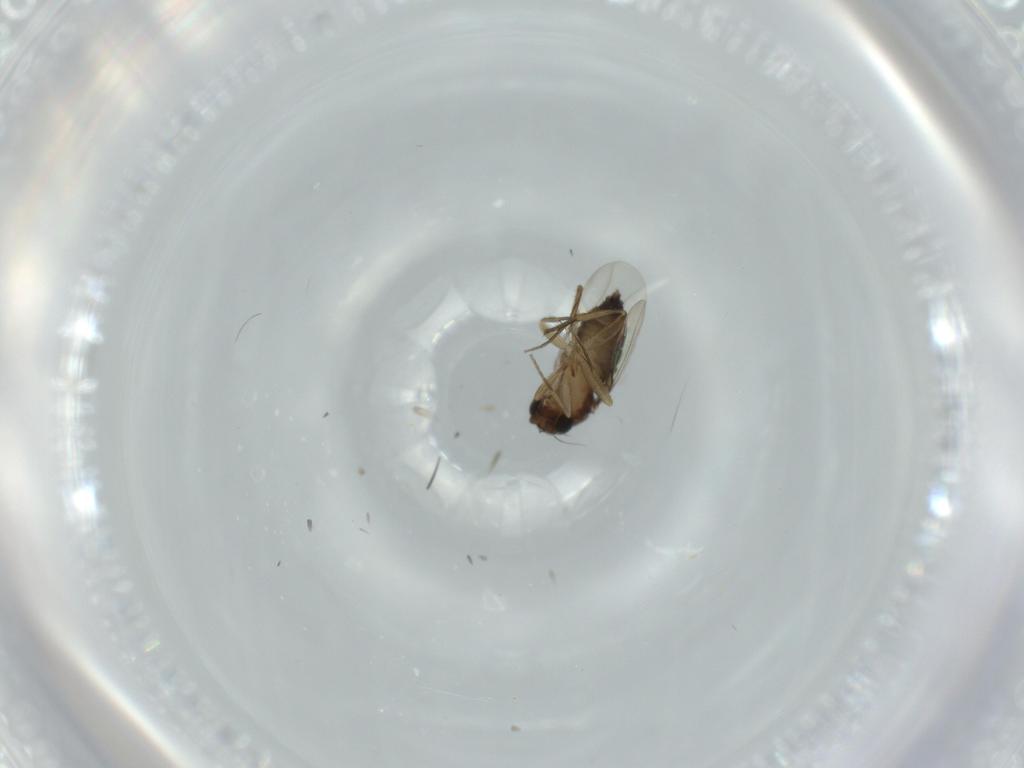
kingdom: Animalia
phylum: Arthropoda
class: Insecta
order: Diptera
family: Phoridae
